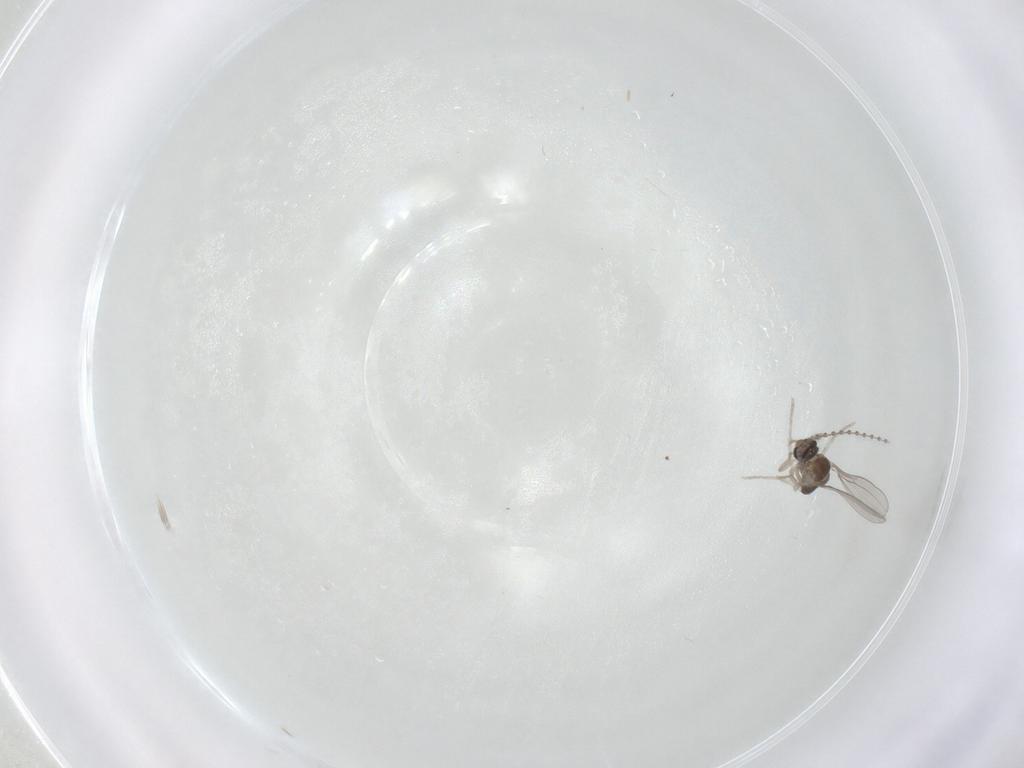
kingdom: Animalia
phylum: Arthropoda
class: Insecta
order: Diptera
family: Cecidomyiidae
